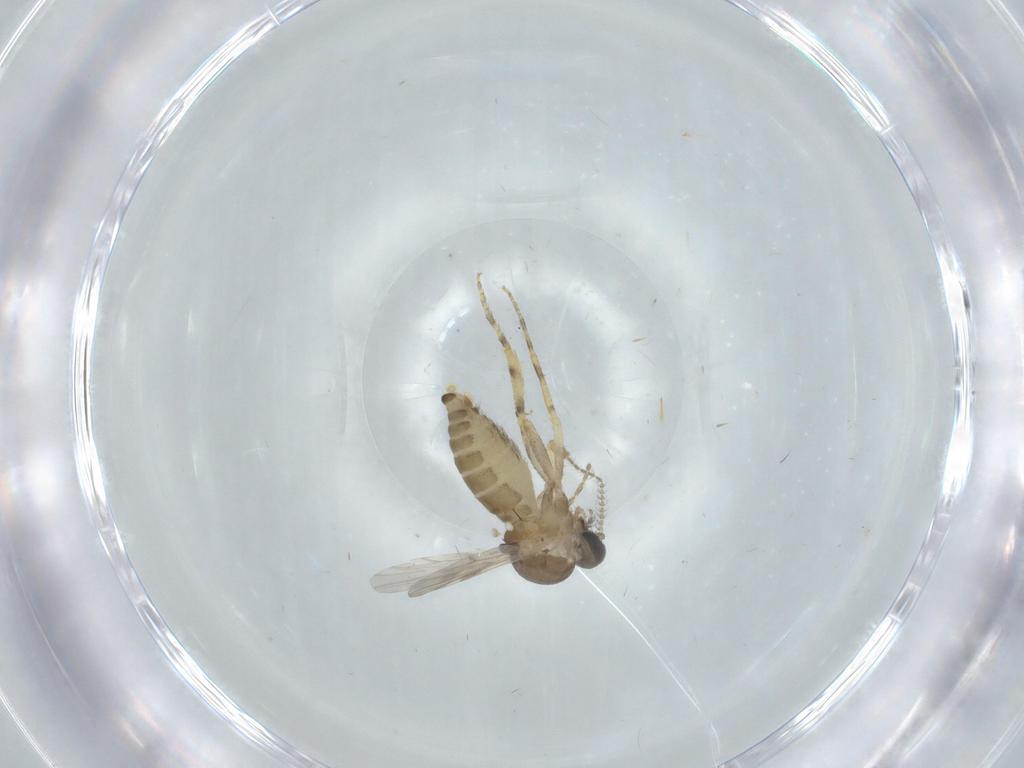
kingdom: Animalia
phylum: Arthropoda
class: Insecta
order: Diptera
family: Ceratopogonidae
